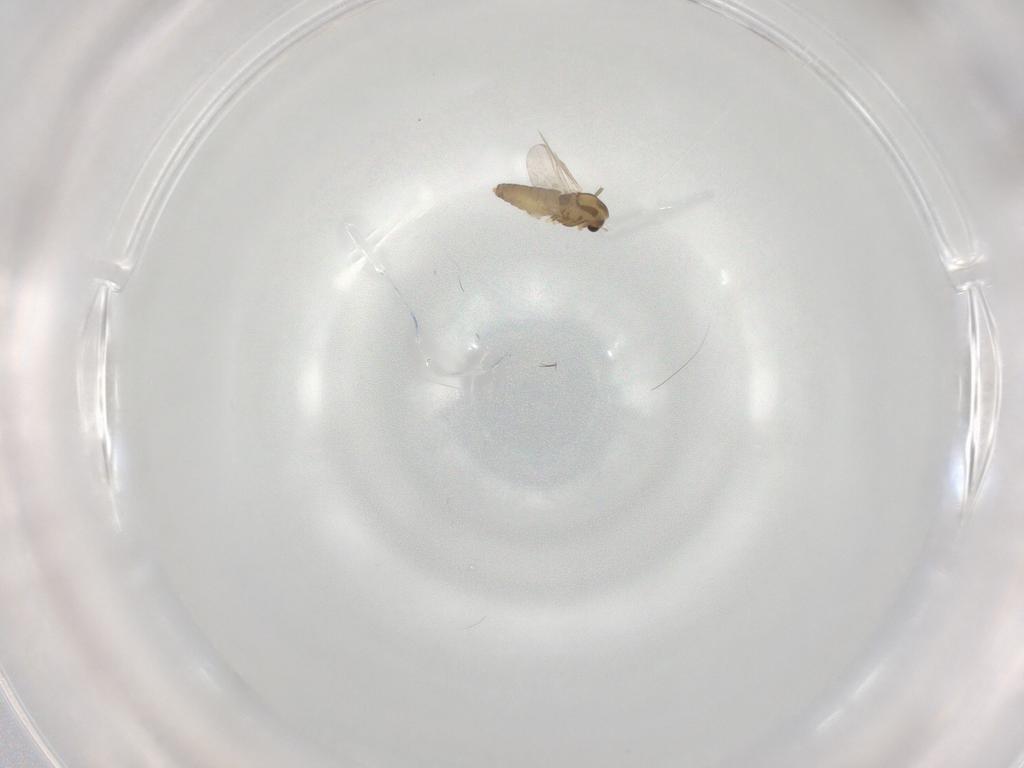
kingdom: Animalia
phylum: Arthropoda
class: Insecta
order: Diptera
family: Chironomidae
